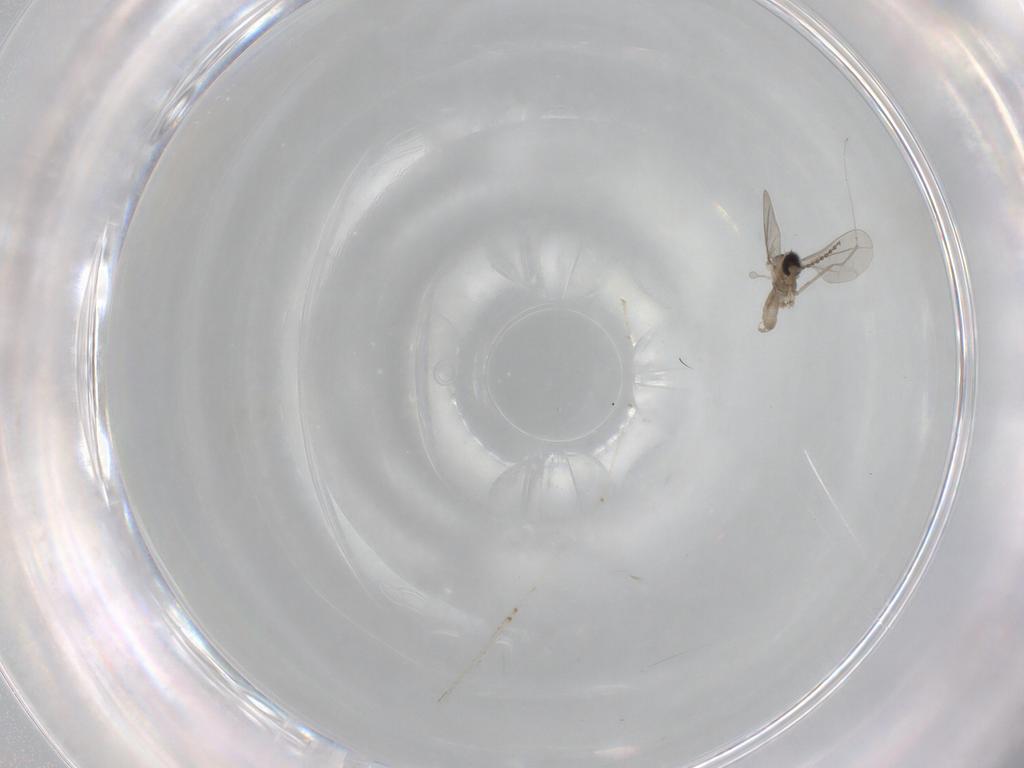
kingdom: Animalia
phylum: Arthropoda
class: Insecta
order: Diptera
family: Cecidomyiidae
